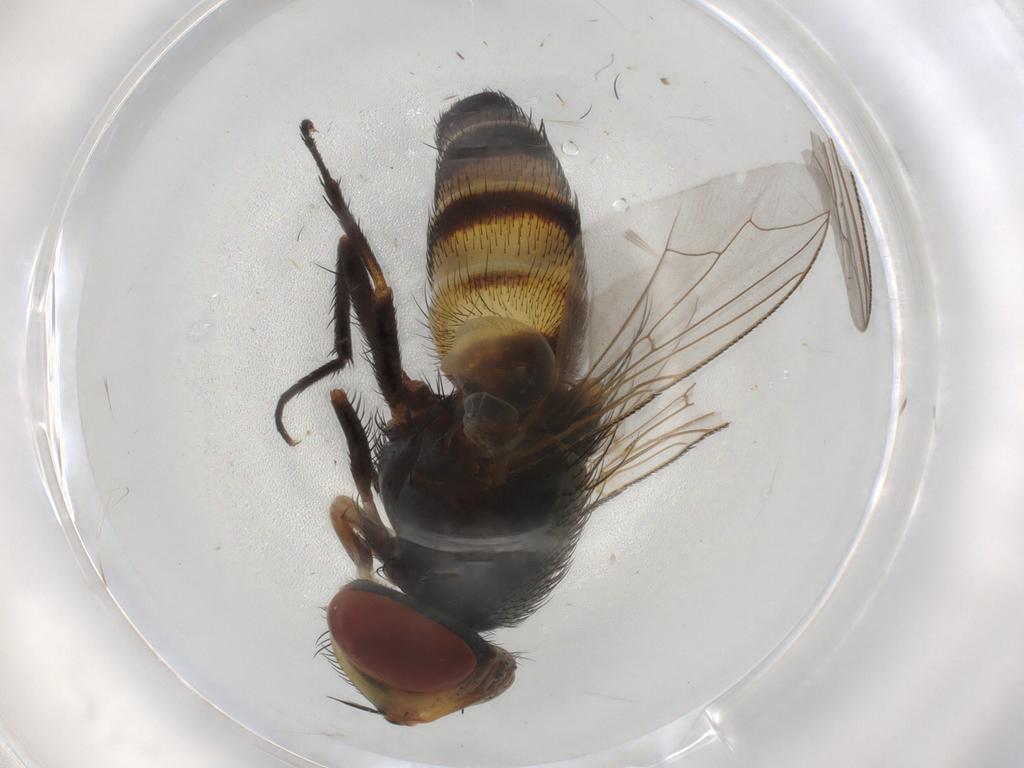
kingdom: Animalia
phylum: Arthropoda
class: Insecta
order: Diptera
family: Sarcophagidae
